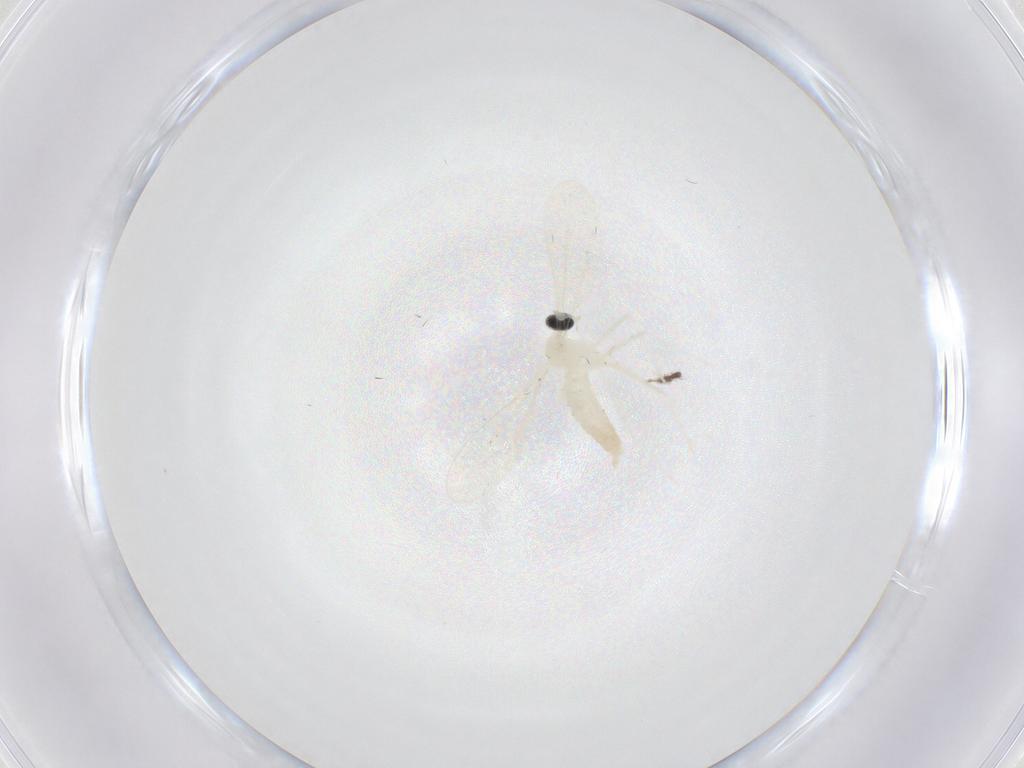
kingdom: Animalia
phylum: Arthropoda
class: Insecta
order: Diptera
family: Cecidomyiidae
